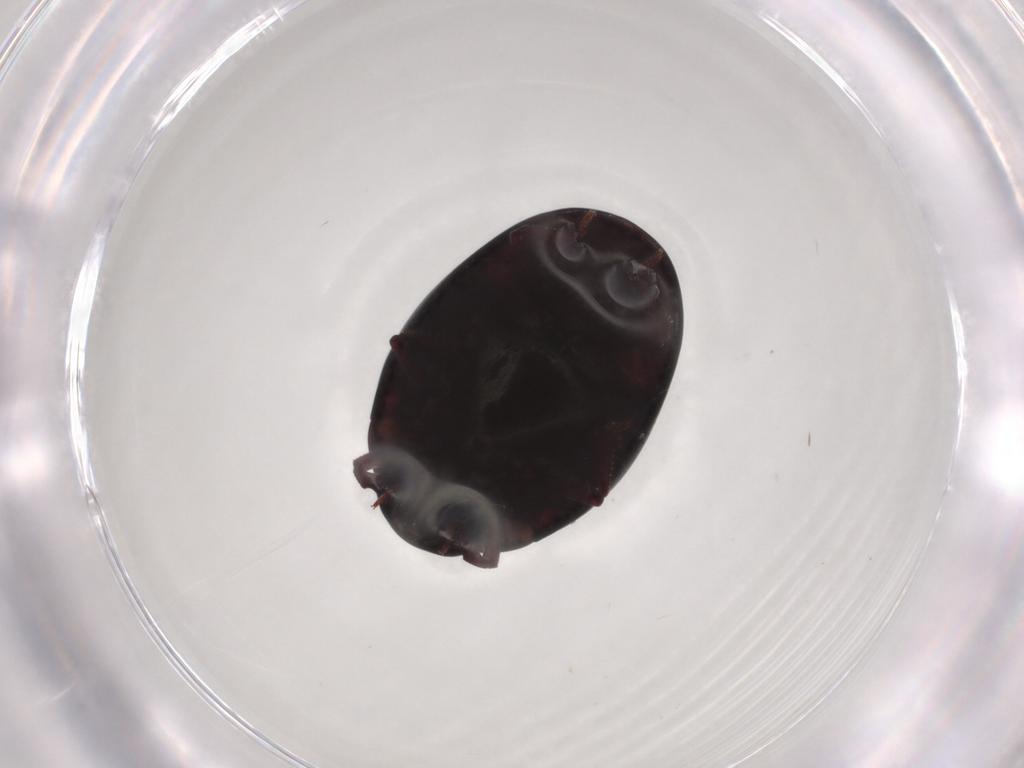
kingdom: Animalia
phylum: Arthropoda
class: Insecta
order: Coleoptera
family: Nosodendridae
